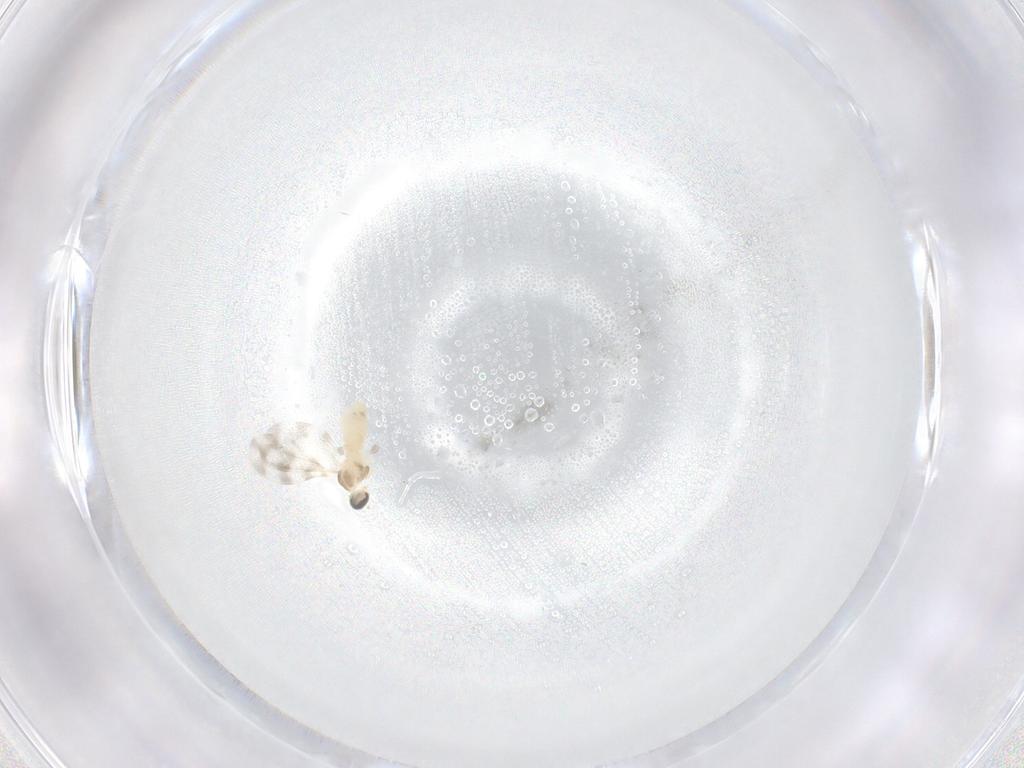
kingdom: Animalia
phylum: Arthropoda
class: Insecta
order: Diptera
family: Cecidomyiidae
